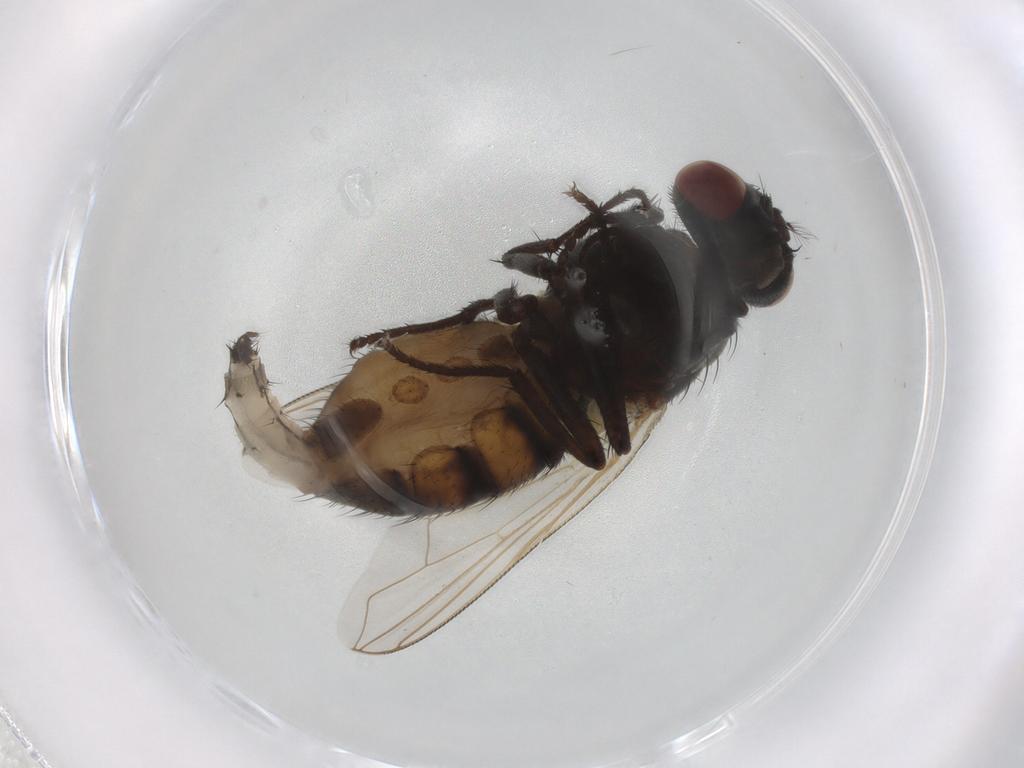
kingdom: Animalia
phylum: Arthropoda
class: Insecta
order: Diptera
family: Muscidae
